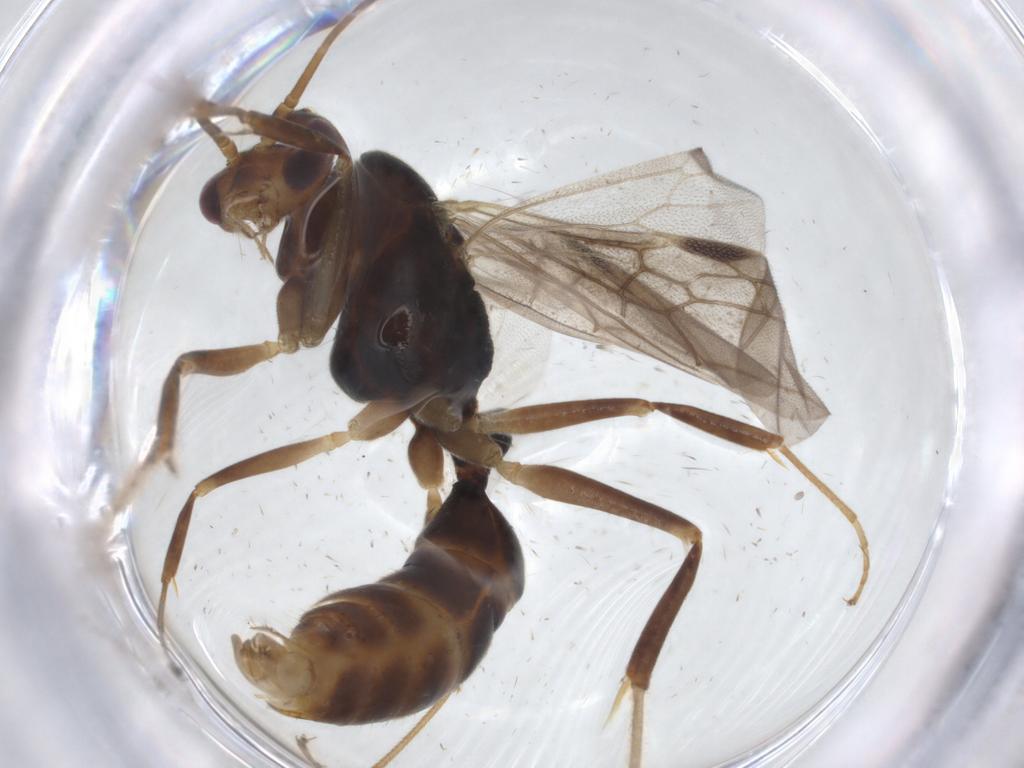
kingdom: Animalia
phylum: Arthropoda
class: Insecta
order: Hymenoptera
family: Formicidae
